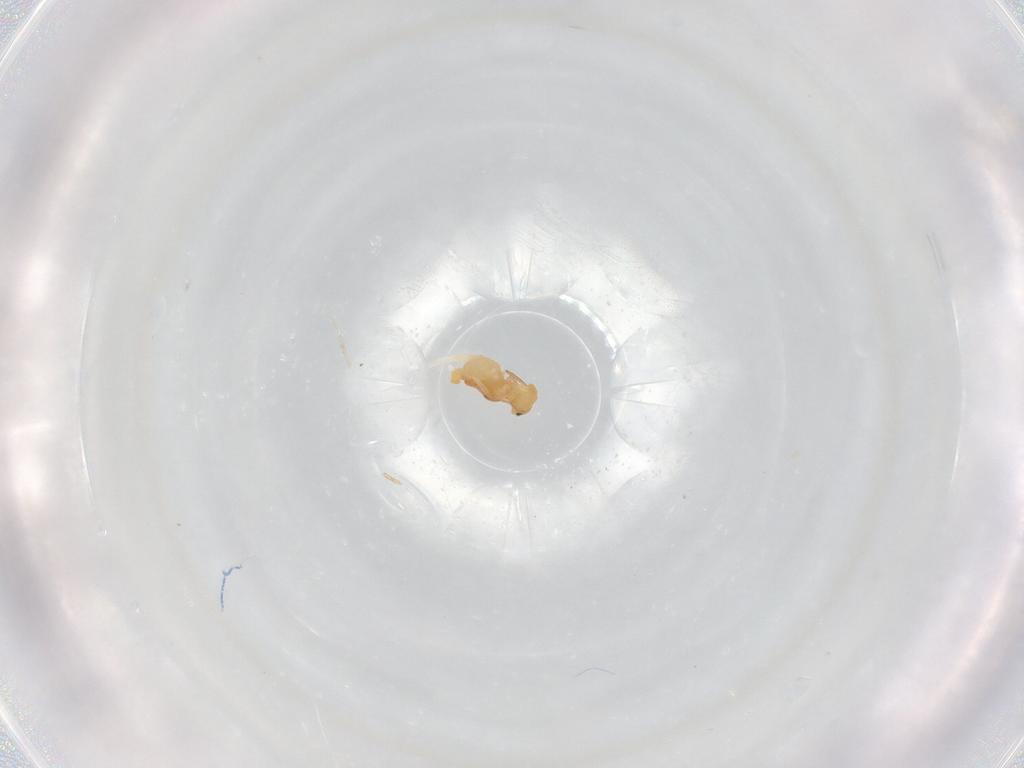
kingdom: Animalia
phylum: Arthropoda
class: Collembola
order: Symphypleona
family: Bourletiellidae
